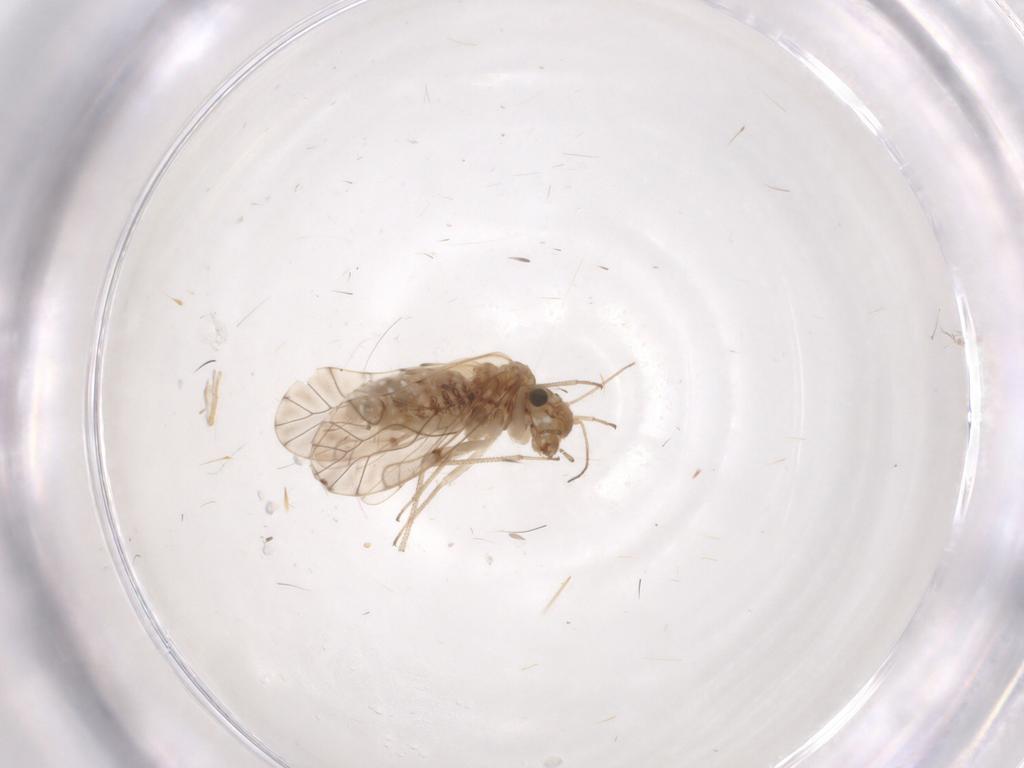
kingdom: Animalia
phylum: Arthropoda
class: Insecta
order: Psocodea
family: Lachesillidae
